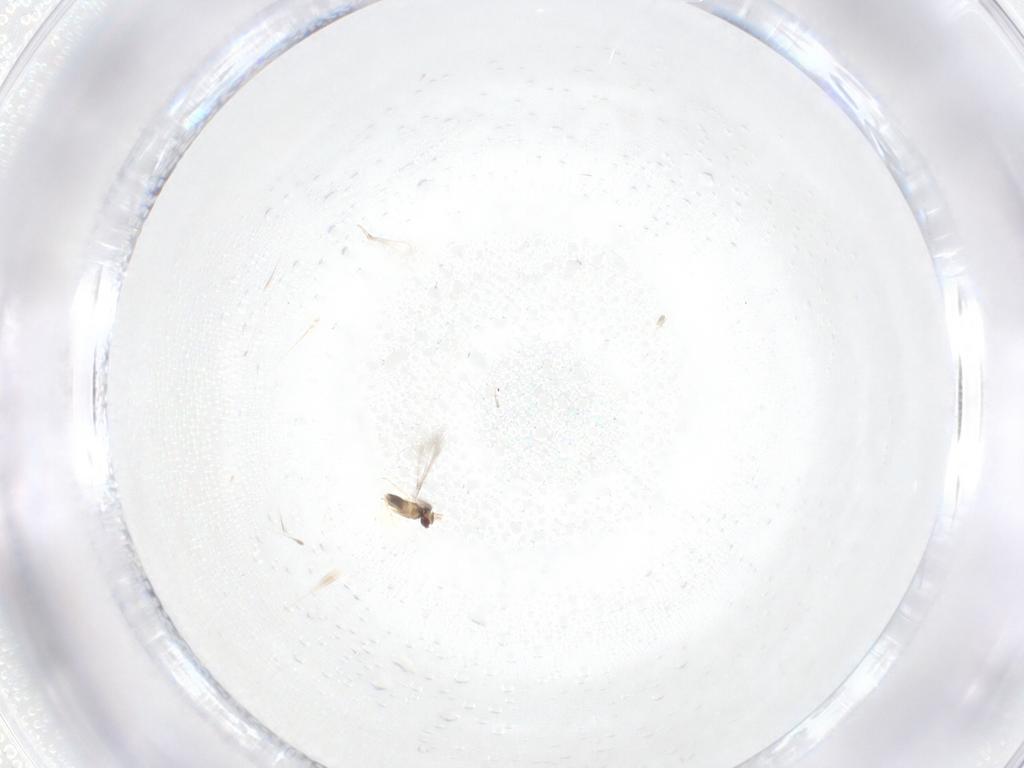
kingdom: Animalia
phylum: Arthropoda
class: Insecta
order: Hymenoptera
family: Mymaridae
